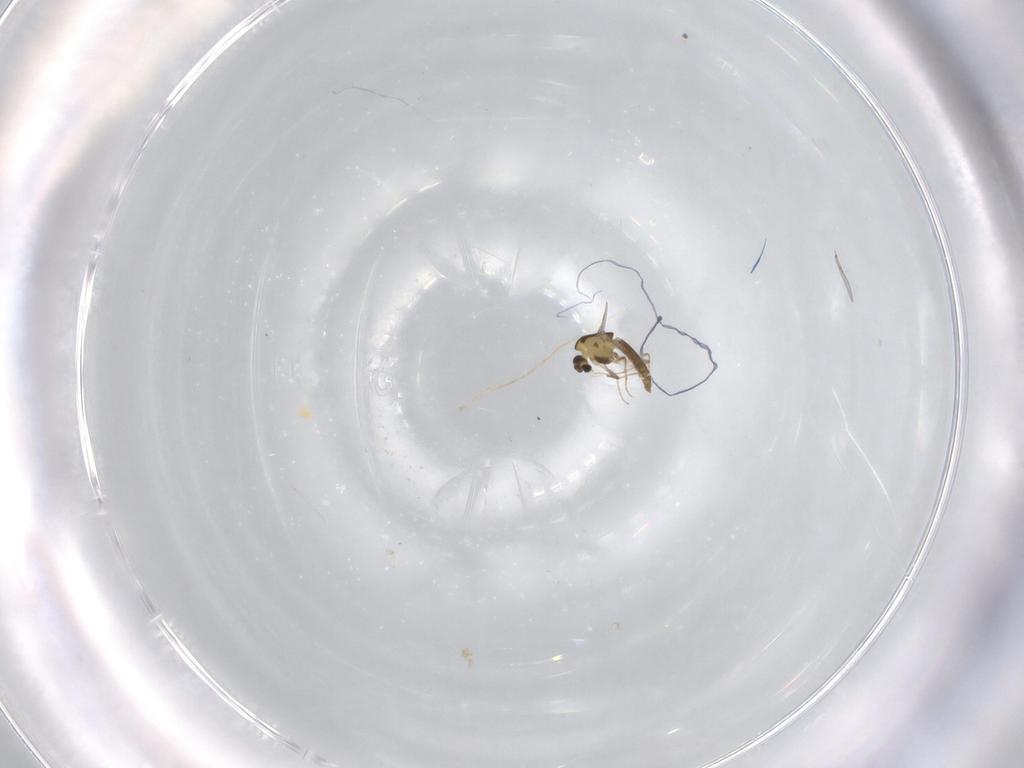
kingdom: Animalia
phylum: Arthropoda
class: Insecta
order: Diptera
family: Chironomidae
